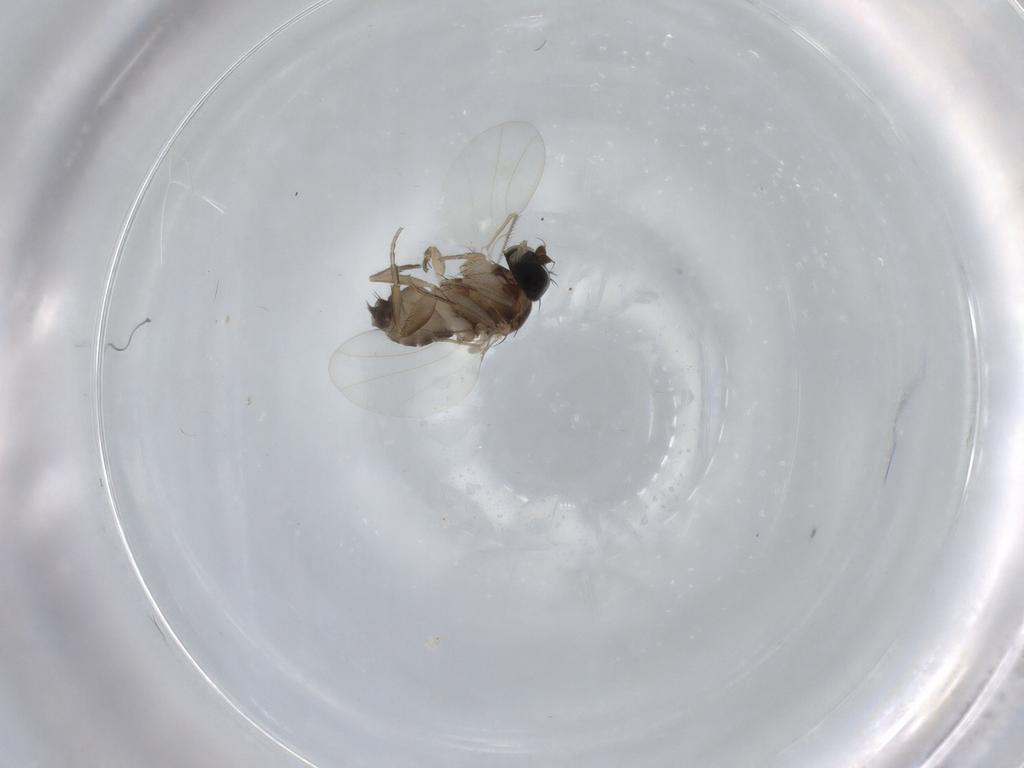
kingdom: Animalia
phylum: Arthropoda
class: Insecta
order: Diptera
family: Phoridae
